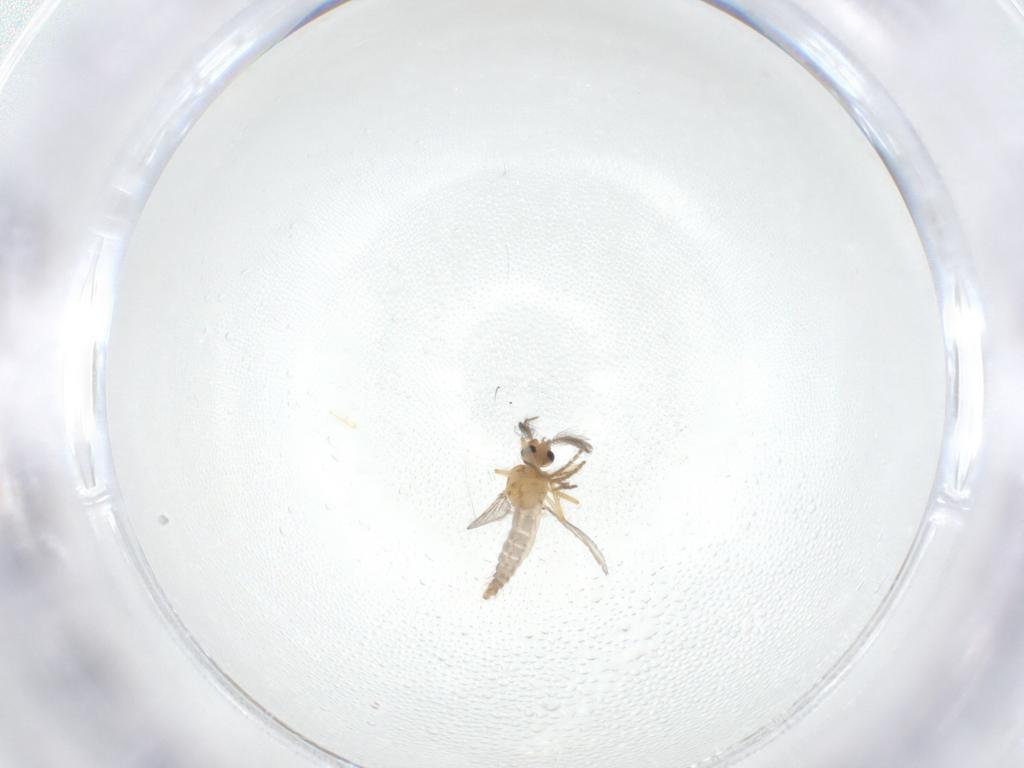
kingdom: Animalia
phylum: Arthropoda
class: Insecta
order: Diptera
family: Ceratopogonidae
